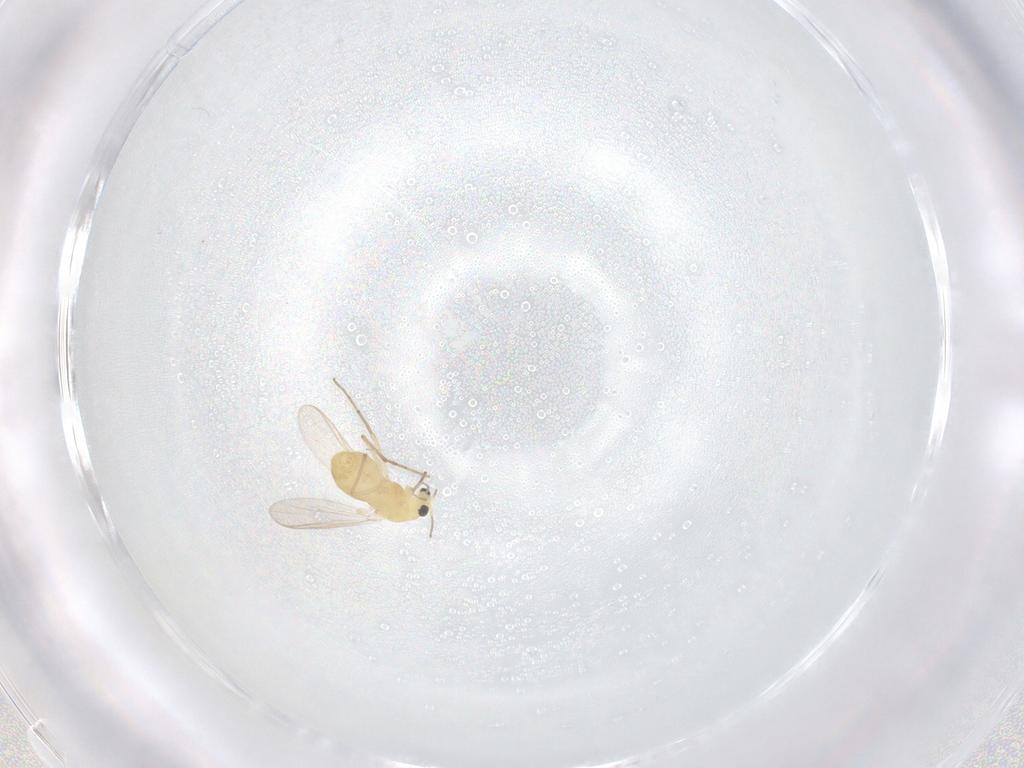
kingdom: Animalia
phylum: Arthropoda
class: Insecta
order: Diptera
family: Chironomidae
